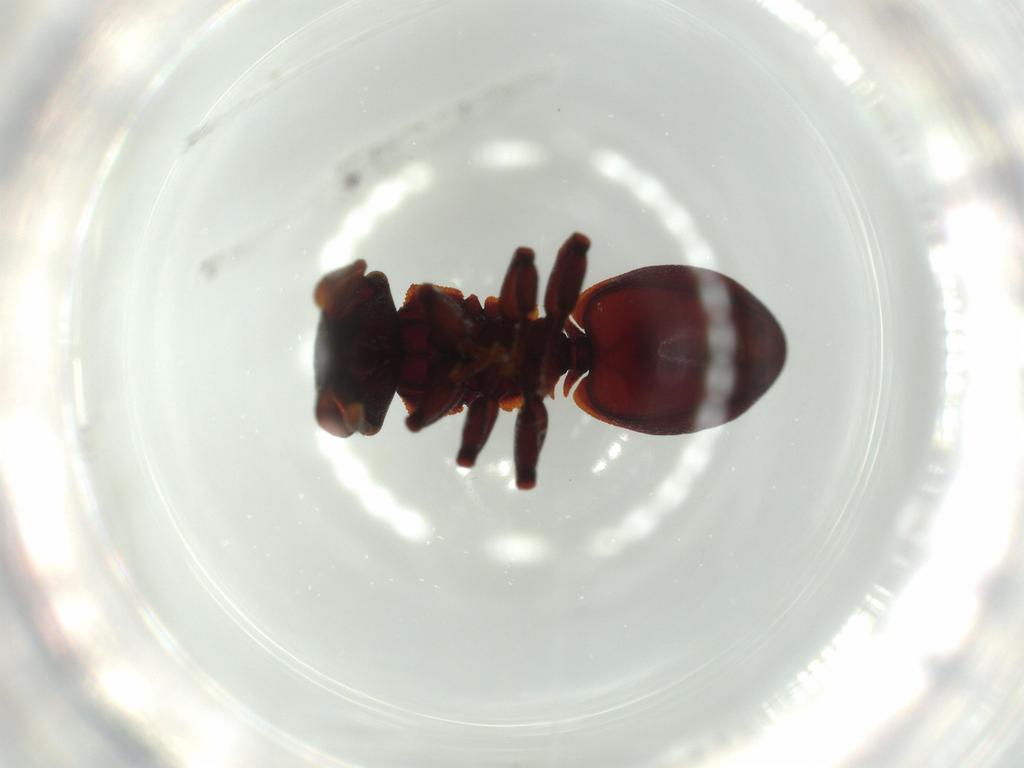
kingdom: Animalia
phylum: Arthropoda
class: Insecta
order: Hymenoptera
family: Formicidae
